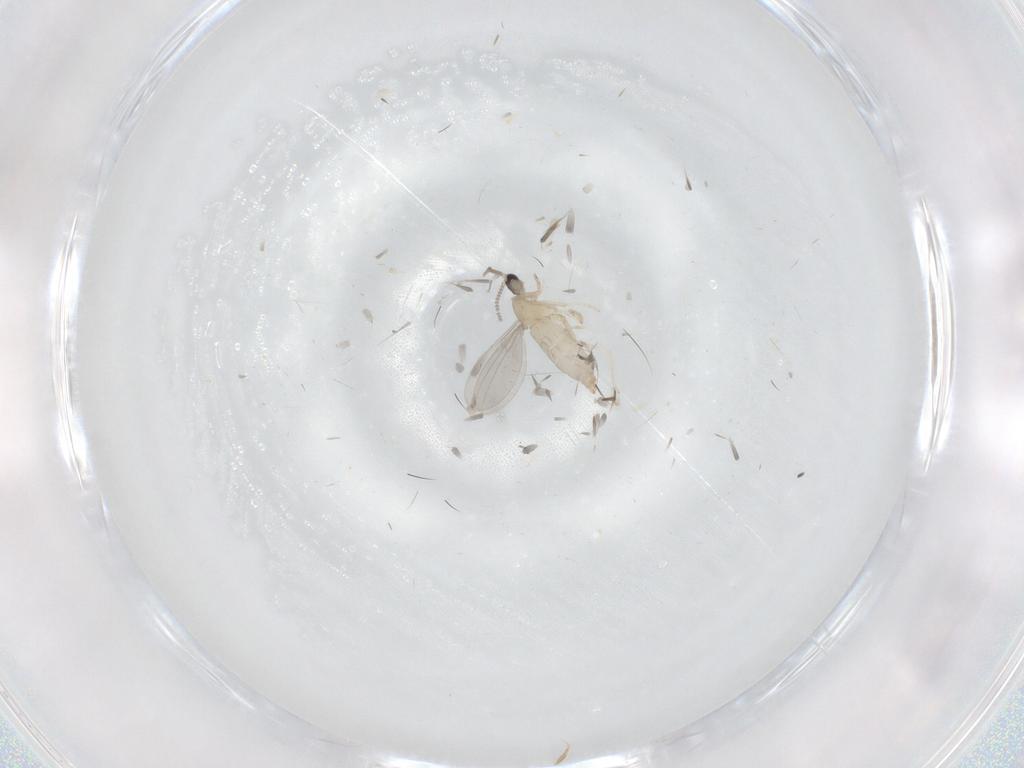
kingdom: Animalia
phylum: Arthropoda
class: Insecta
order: Diptera
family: Cecidomyiidae
